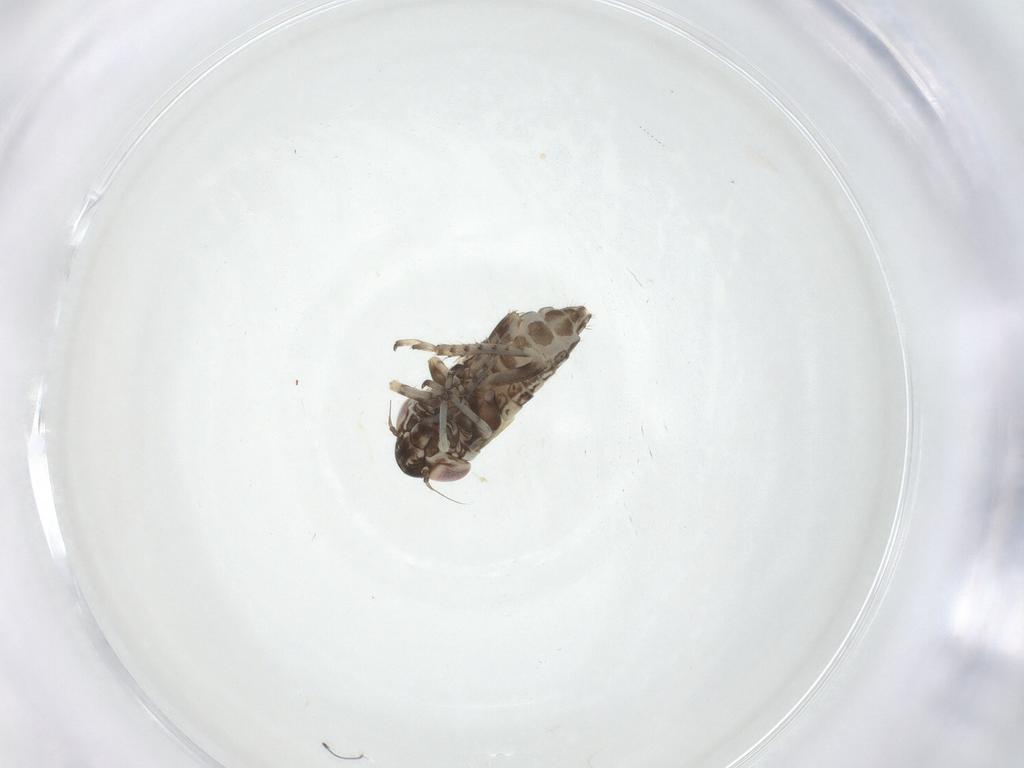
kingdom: Animalia
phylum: Arthropoda
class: Insecta
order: Hemiptera
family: Cicadellidae
